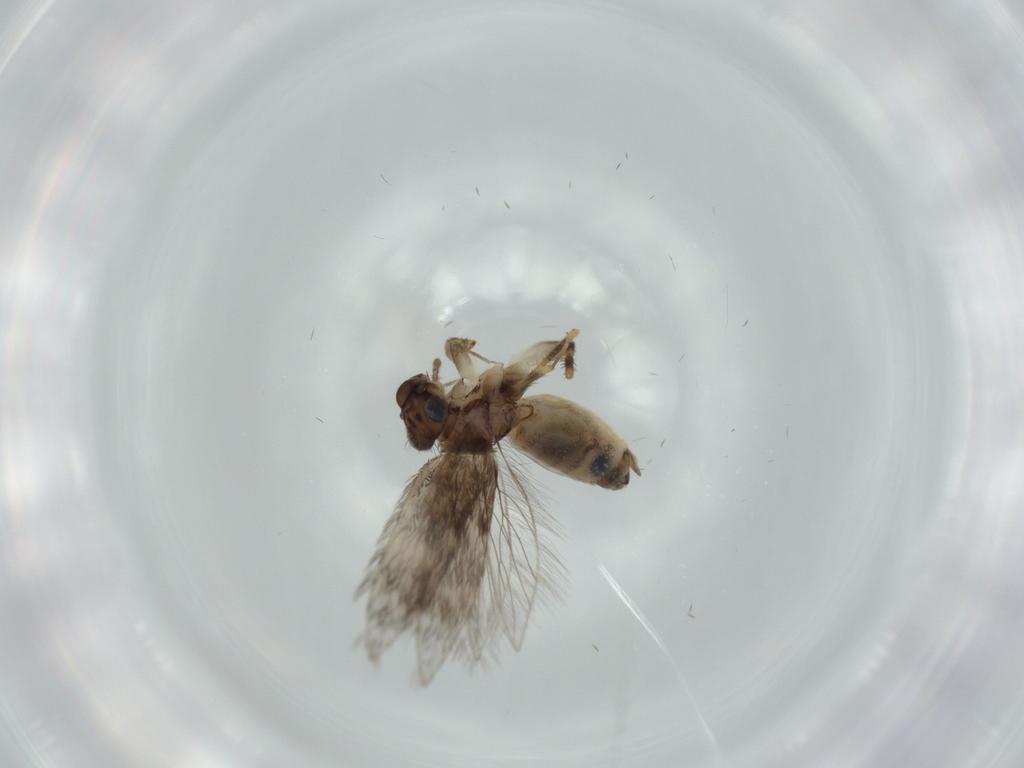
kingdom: Animalia
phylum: Arthropoda
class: Insecta
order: Psocodea
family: Lepidopsocidae
